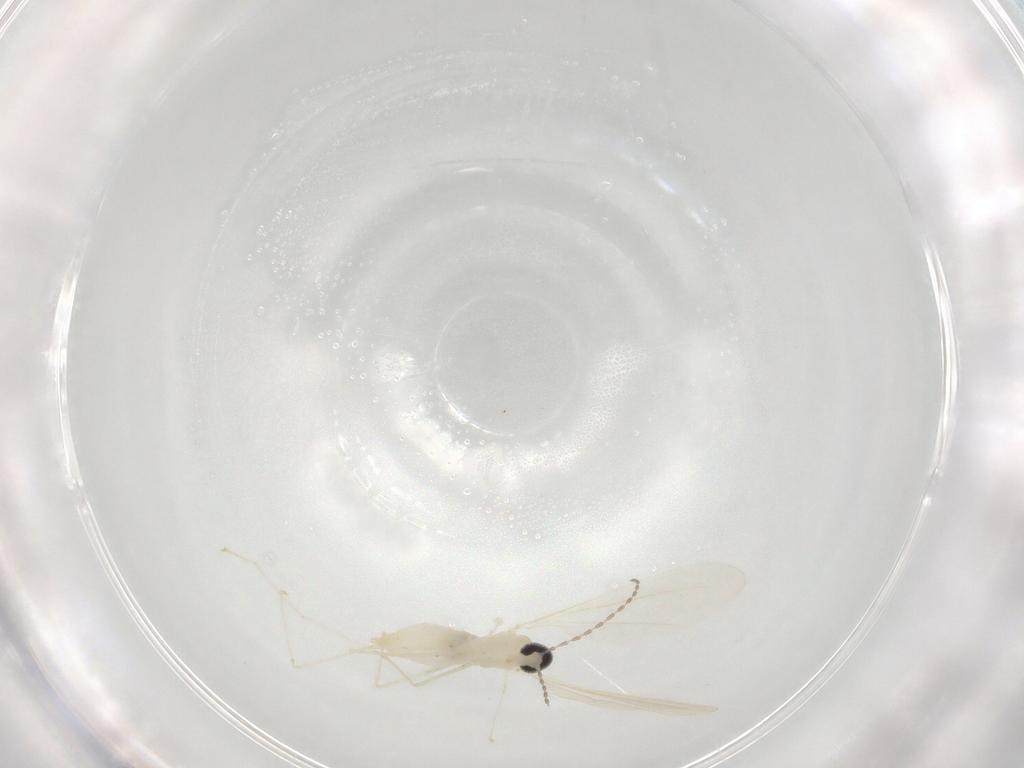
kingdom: Animalia
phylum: Arthropoda
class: Insecta
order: Diptera
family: Cecidomyiidae
